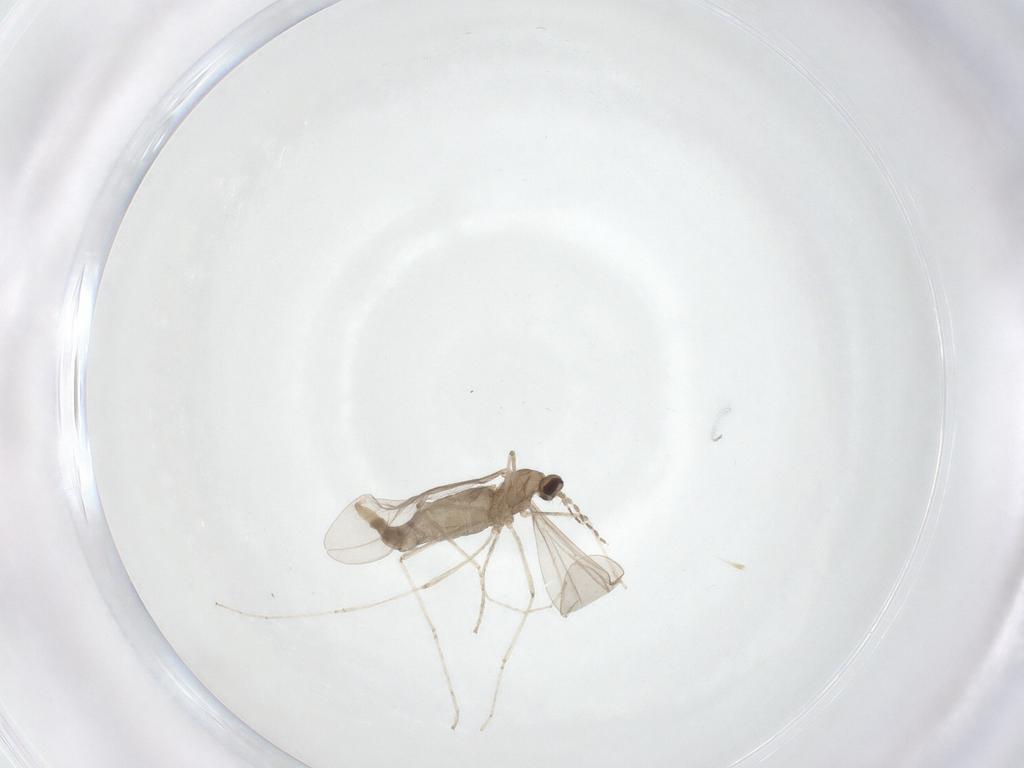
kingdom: Animalia
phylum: Arthropoda
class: Insecta
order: Diptera
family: Cecidomyiidae
